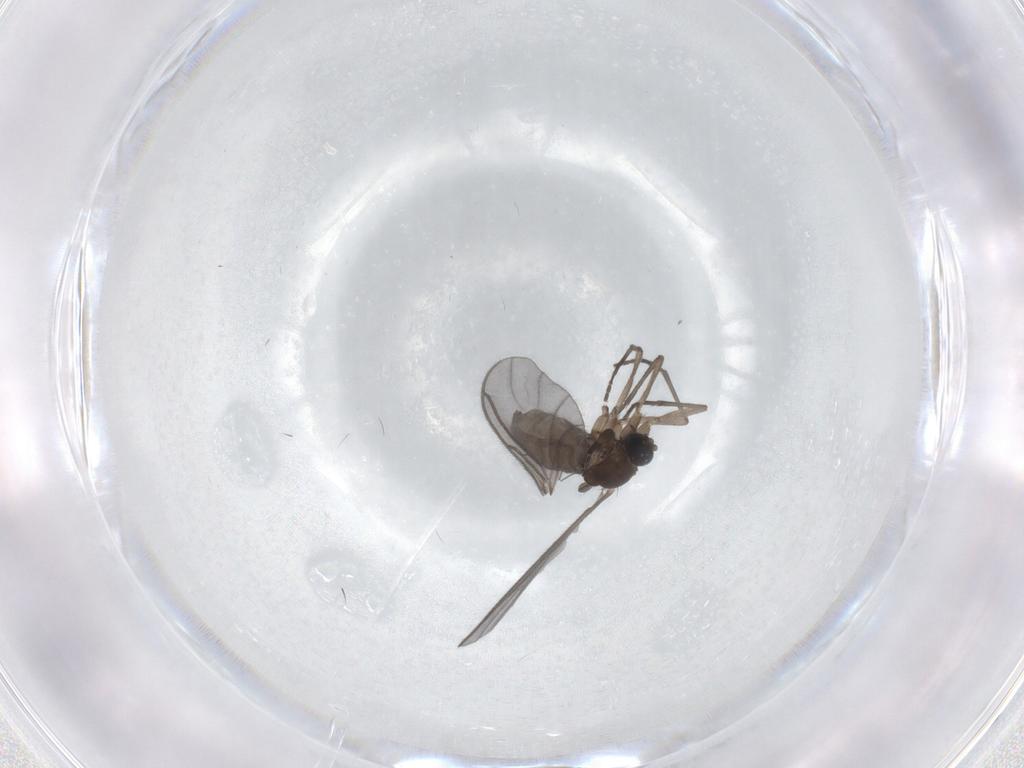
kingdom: Animalia
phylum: Arthropoda
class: Insecta
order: Diptera
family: Sciaridae
